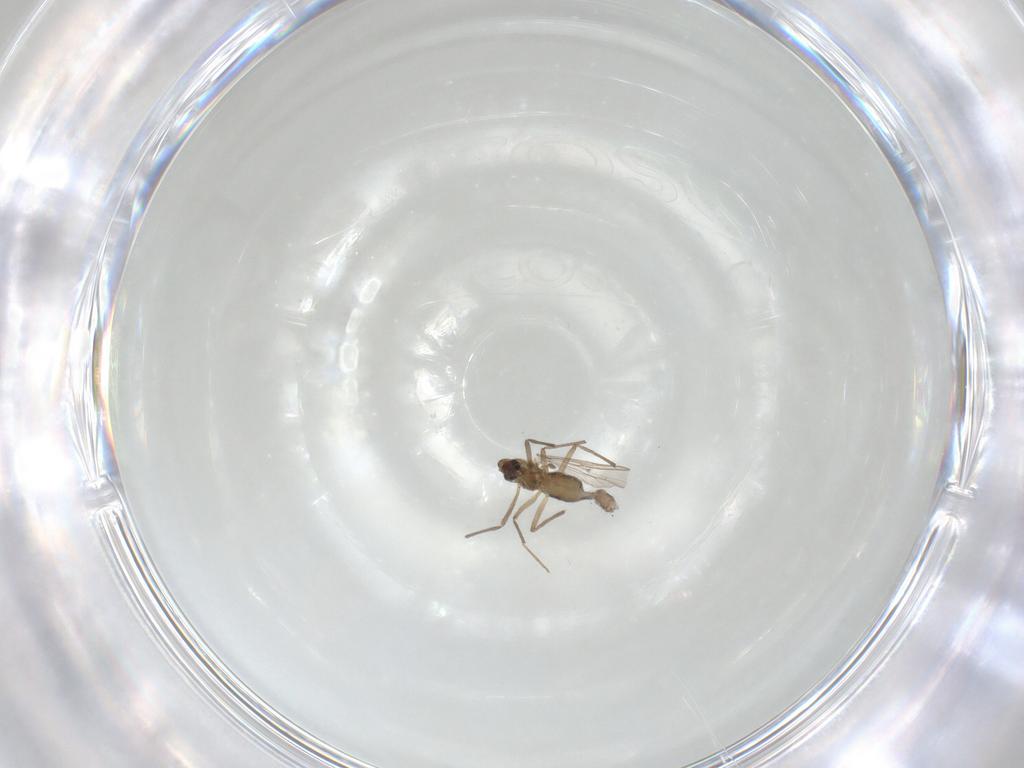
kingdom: Animalia
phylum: Arthropoda
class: Insecta
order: Diptera
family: Chironomidae
